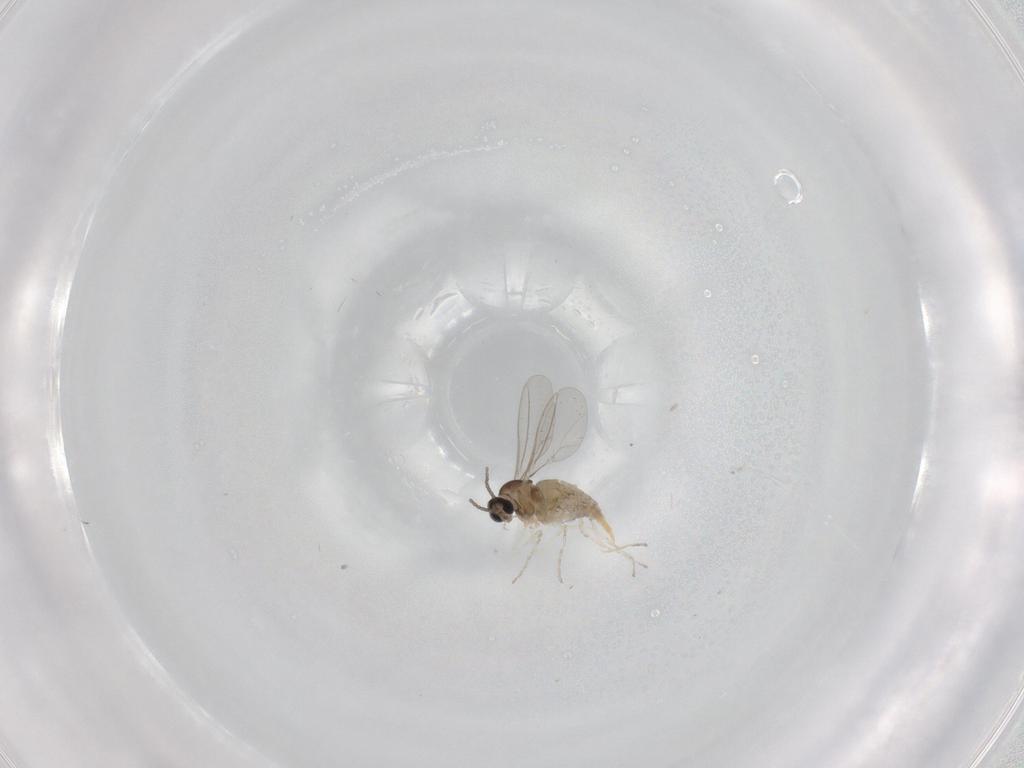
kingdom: Animalia
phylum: Arthropoda
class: Insecta
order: Diptera
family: Cecidomyiidae
